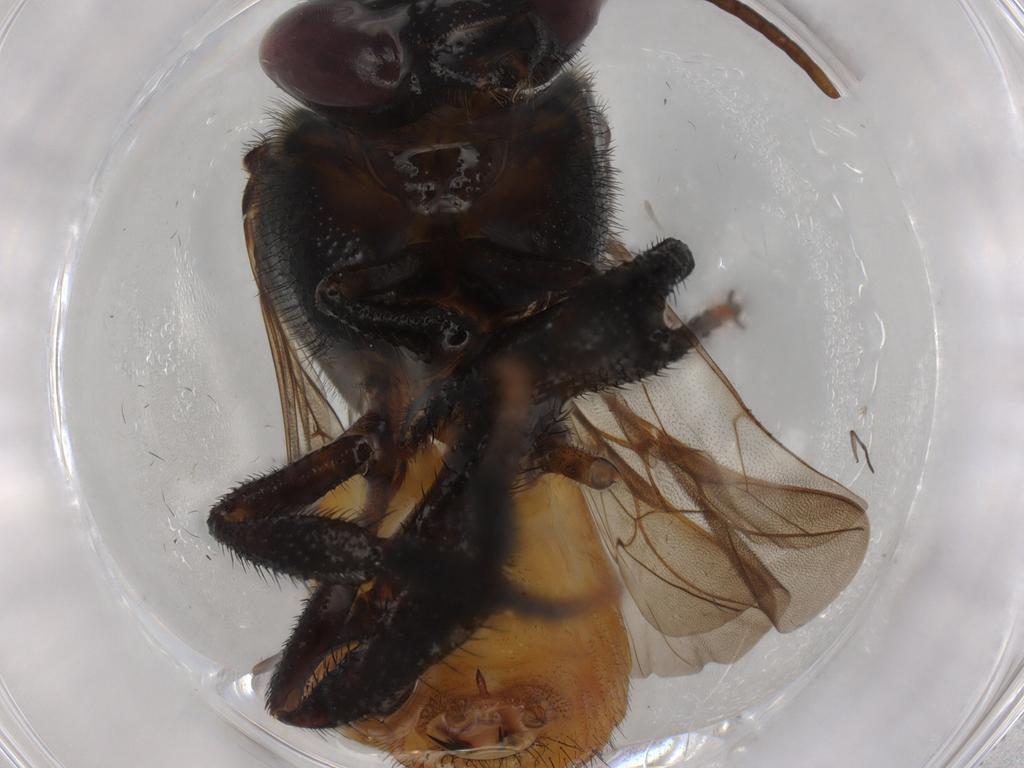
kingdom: Animalia
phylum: Arthropoda
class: Insecta
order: Hymenoptera
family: Apidae
